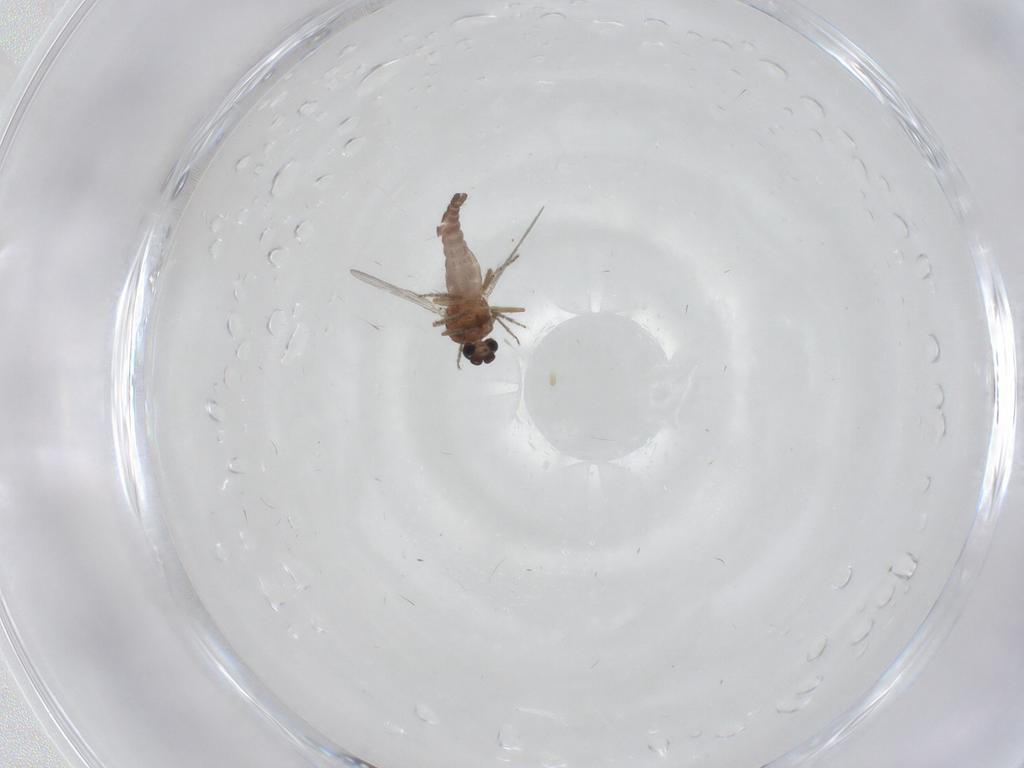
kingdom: Animalia
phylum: Arthropoda
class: Insecta
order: Diptera
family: Ceratopogonidae
